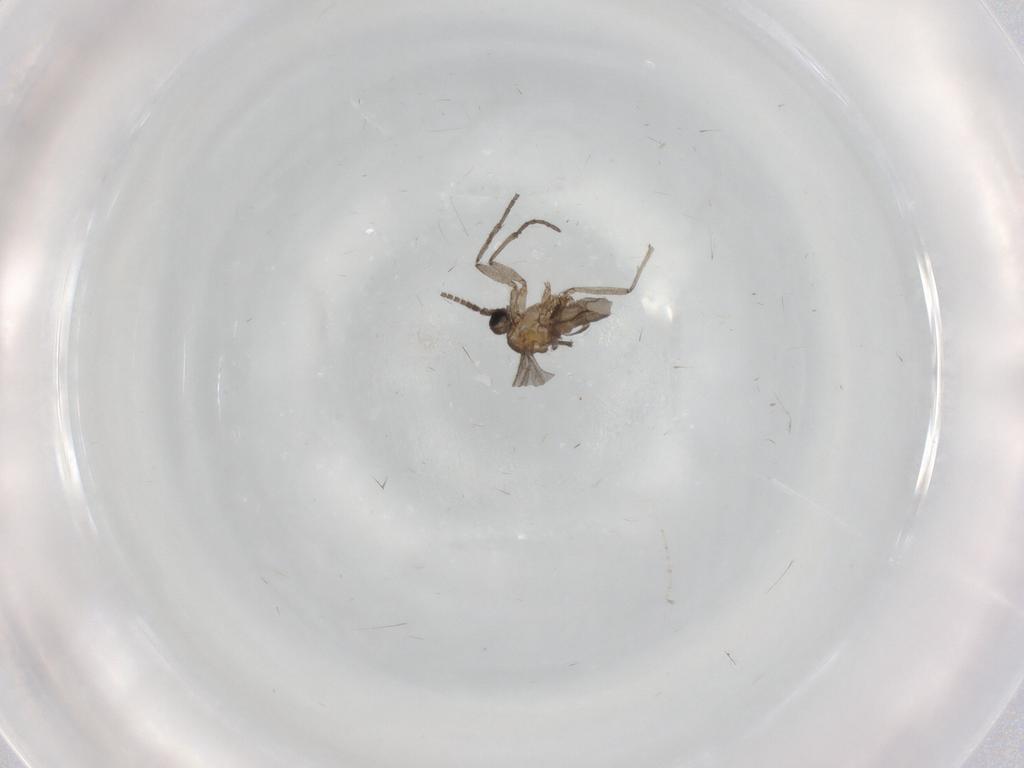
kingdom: Animalia
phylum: Arthropoda
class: Insecta
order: Diptera
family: Sciaridae
